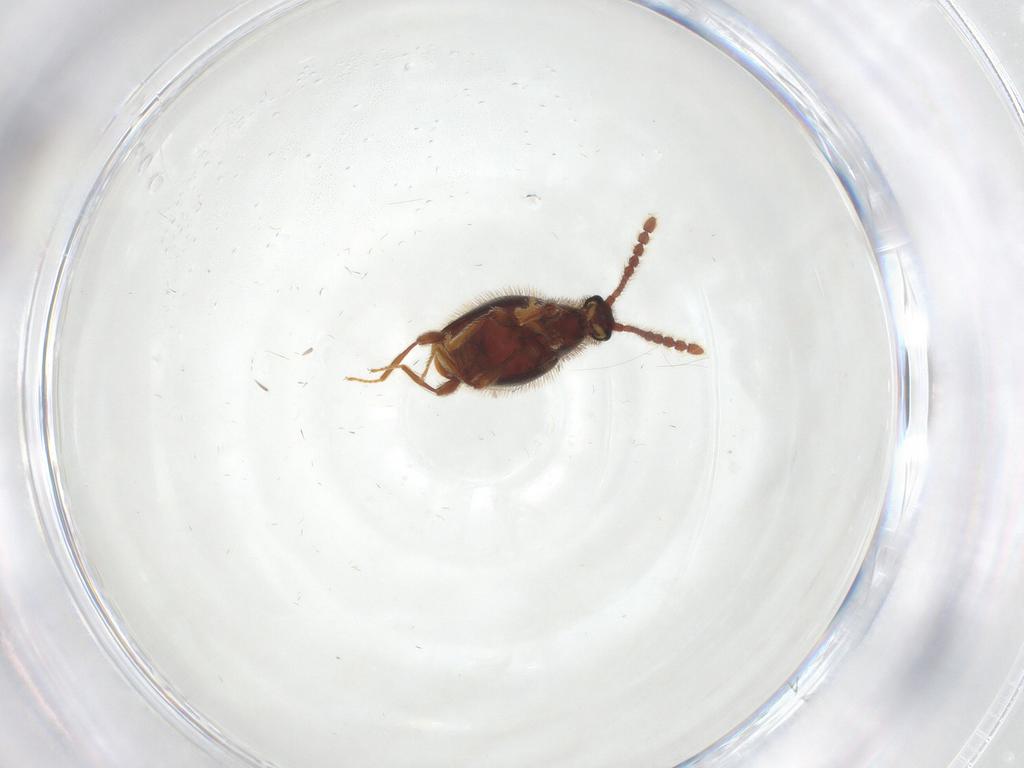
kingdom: Animalia
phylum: Arthropoda
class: Insecta
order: Coleoptera
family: Staphylinidae
